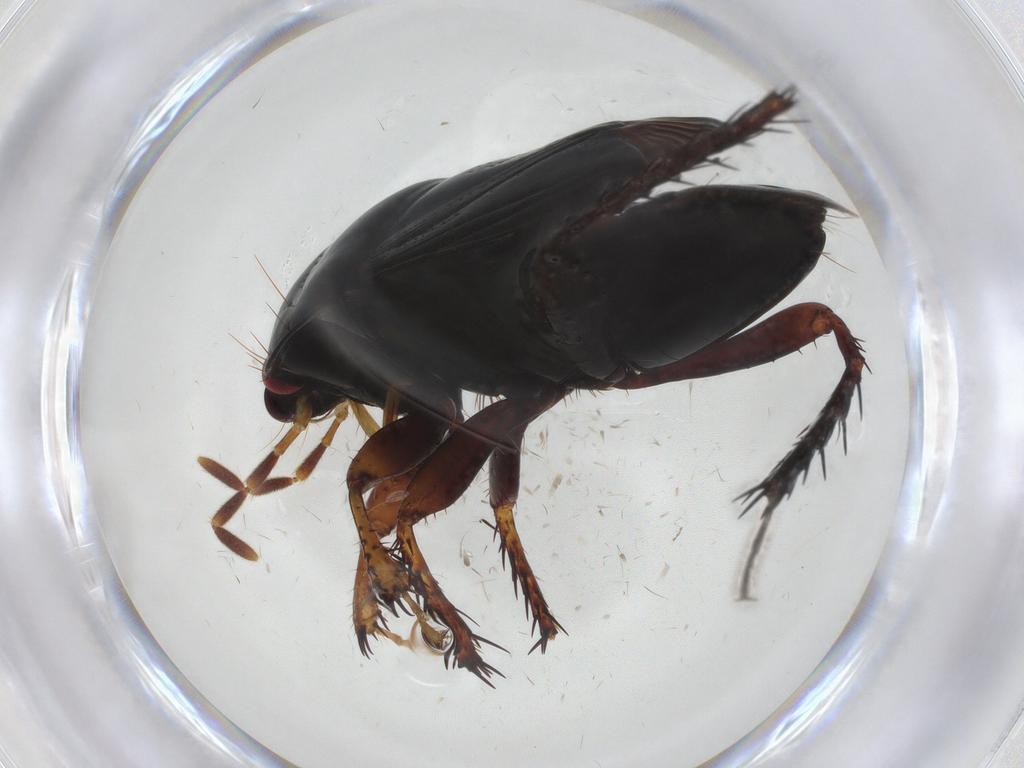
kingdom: Animalia
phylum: Arthropoda
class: Insecta
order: Hemiptera
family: Cydnidae
